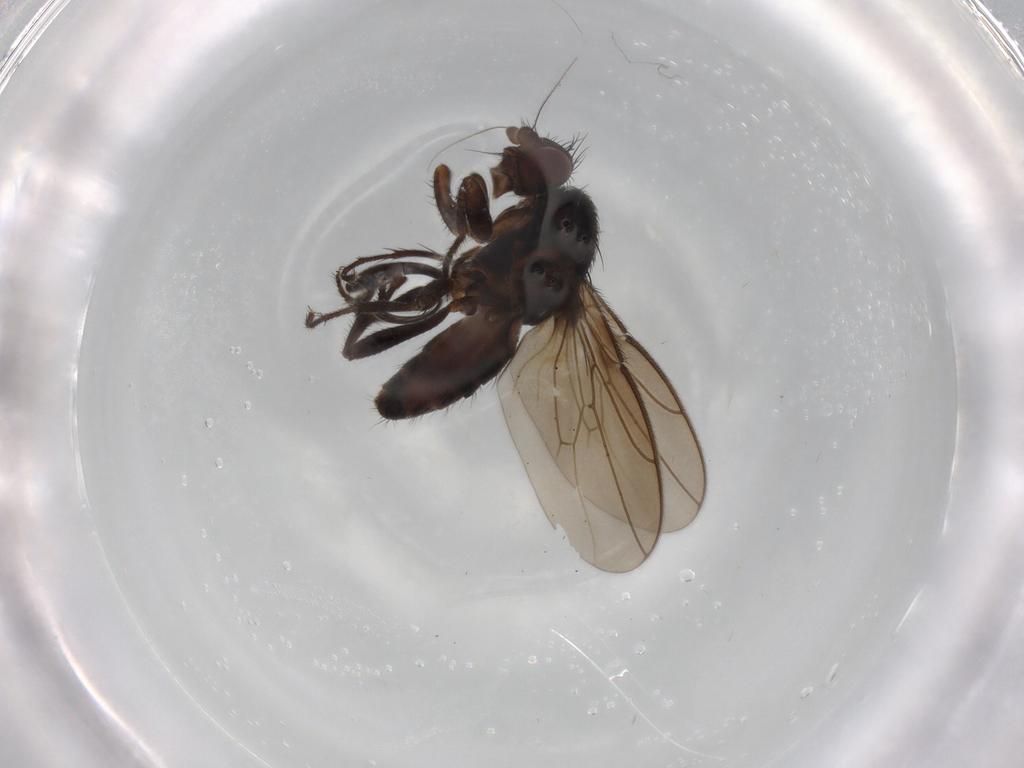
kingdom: Animalia
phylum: Arthropoda
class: Insecta
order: Diptera
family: Sphaeroceridae
